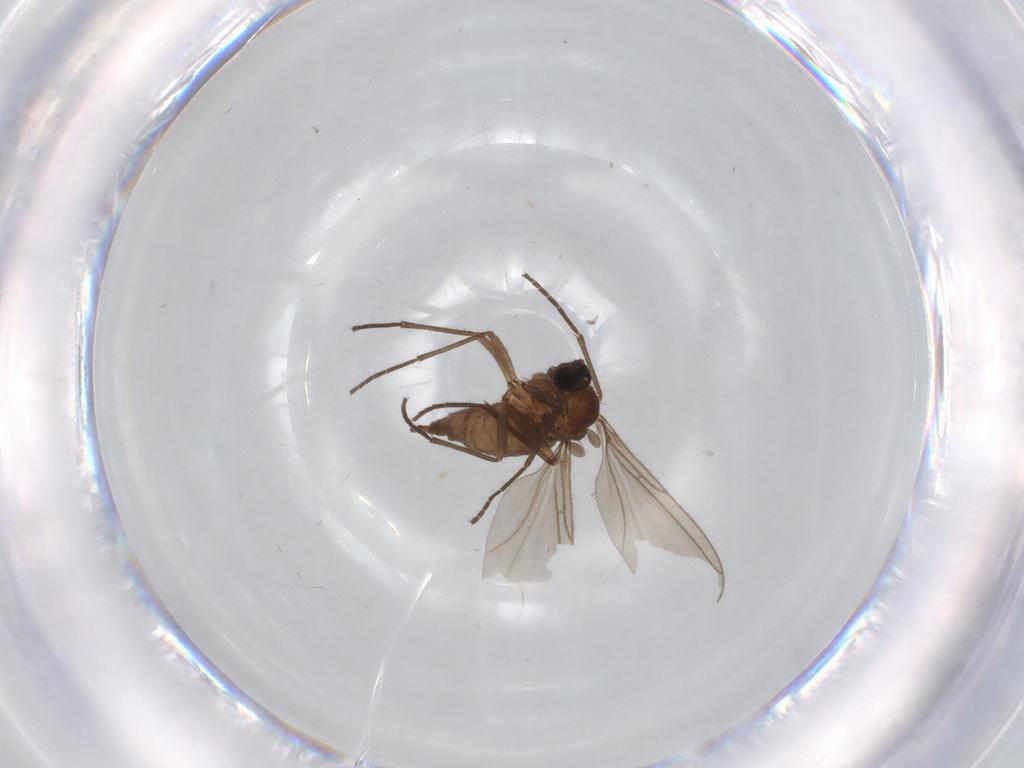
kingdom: Animalia
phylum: Arthropoda
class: Insecta
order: Diptera
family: Sciaridae
